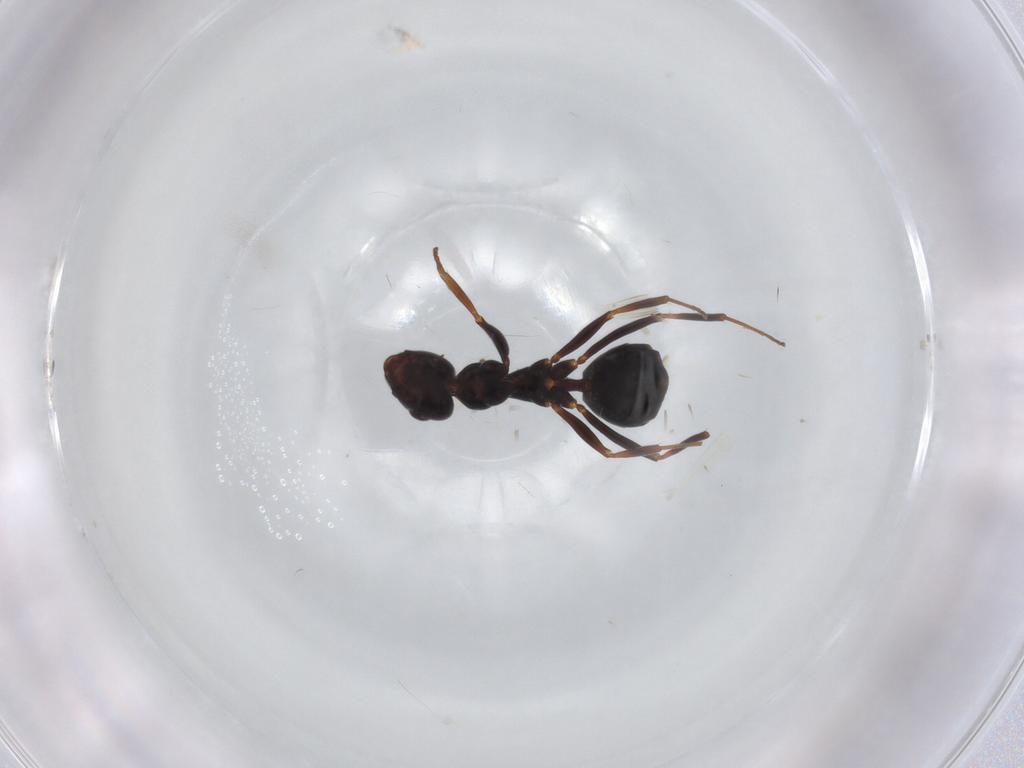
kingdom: Animalia
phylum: Arthropoda
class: Insecta
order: Hymenoptera
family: Formicidae
